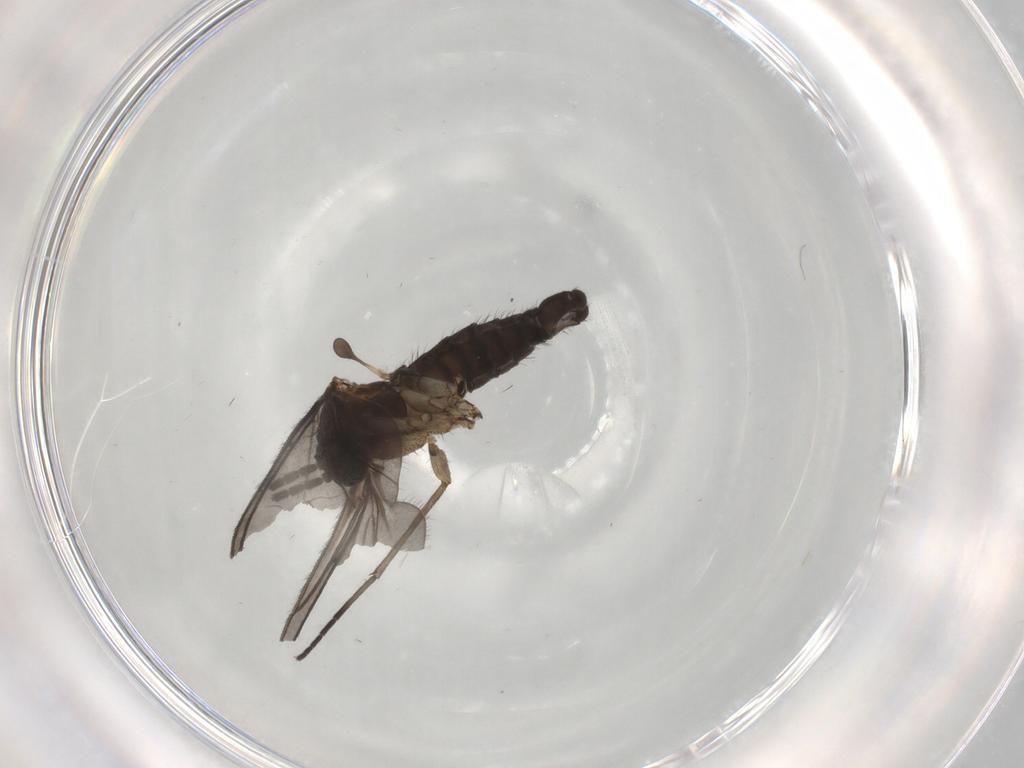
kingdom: Animalia
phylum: Arthropoda
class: Insecta
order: Diptera
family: Sciaridae
